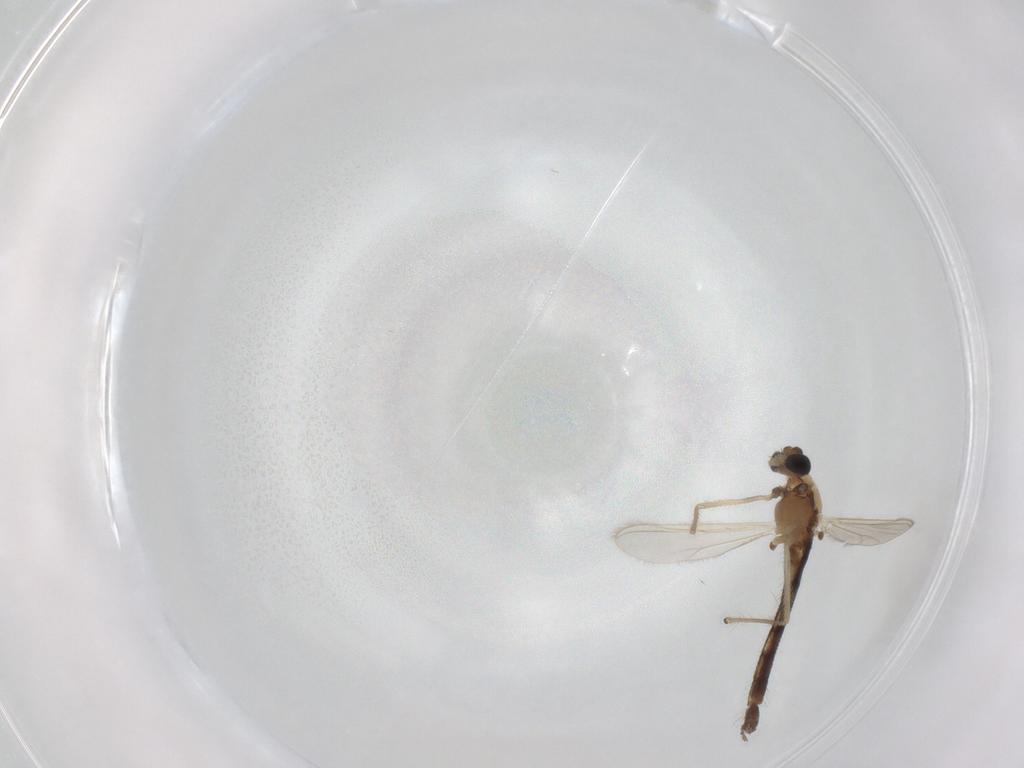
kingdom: Animalia
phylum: Arthropoda
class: Insecta
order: Diptera
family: Chironomidae
